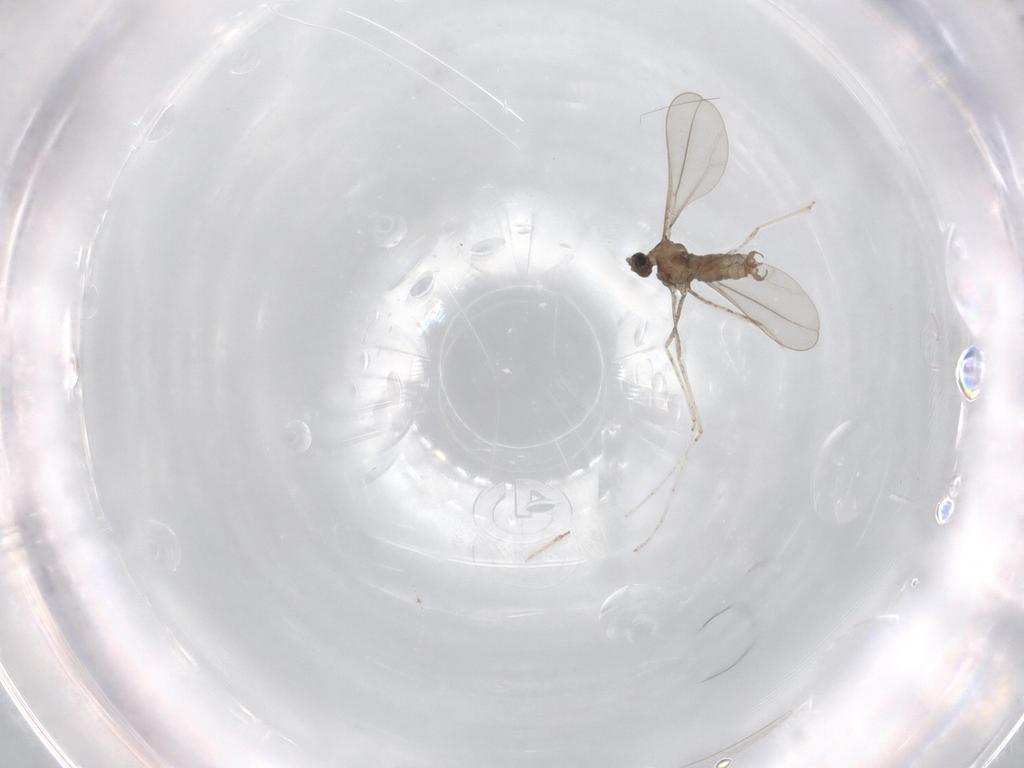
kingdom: Animalia
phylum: Arthropoda
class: Insecta
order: Diptera
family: Cecidomyiidae
